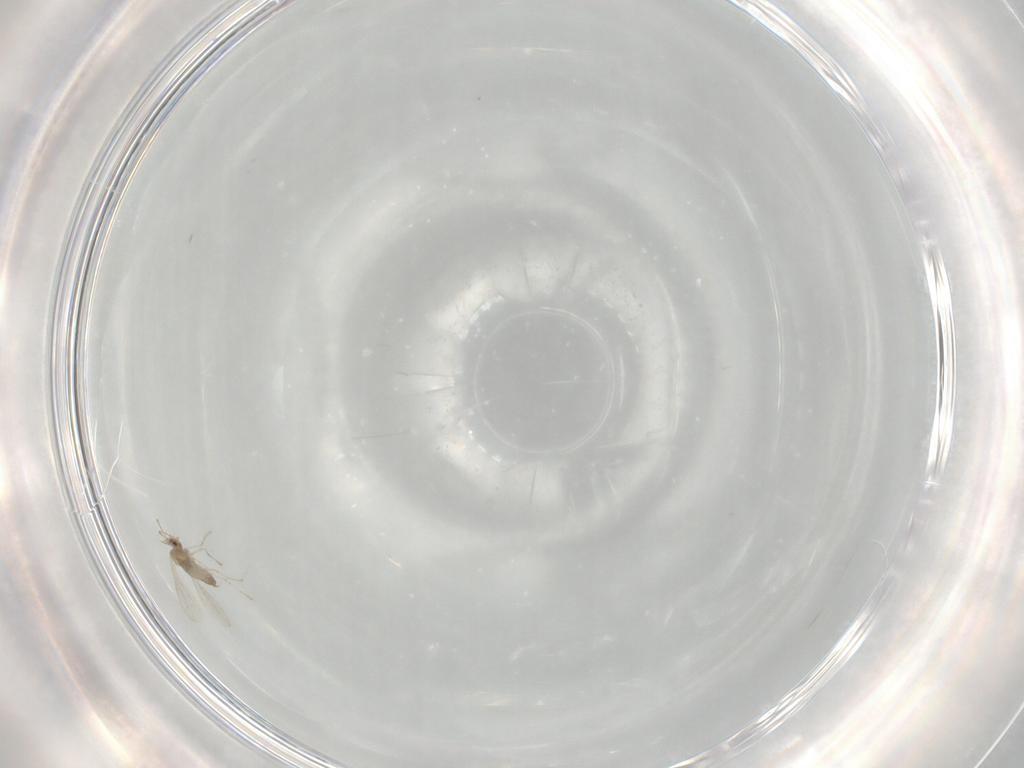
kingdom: Animalia
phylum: Arthropoda
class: Insecta
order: Diptera
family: Cecidomyiidae
